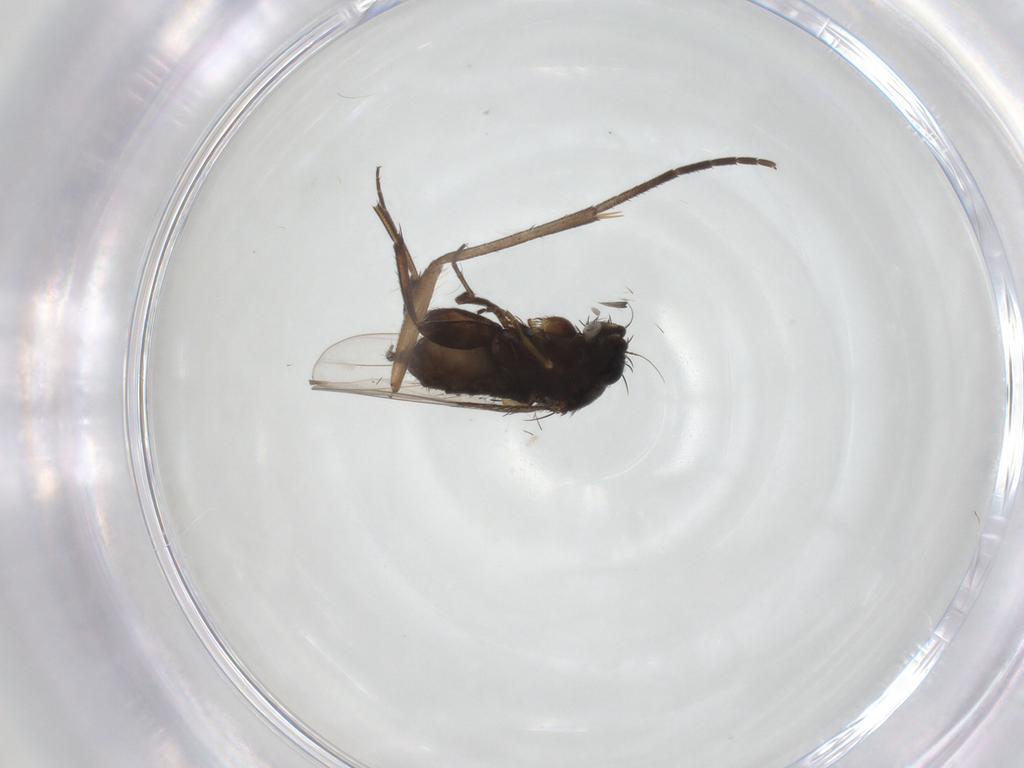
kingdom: Animalia
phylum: Arthropoda
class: Insecta
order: Diptera
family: Phoridae
